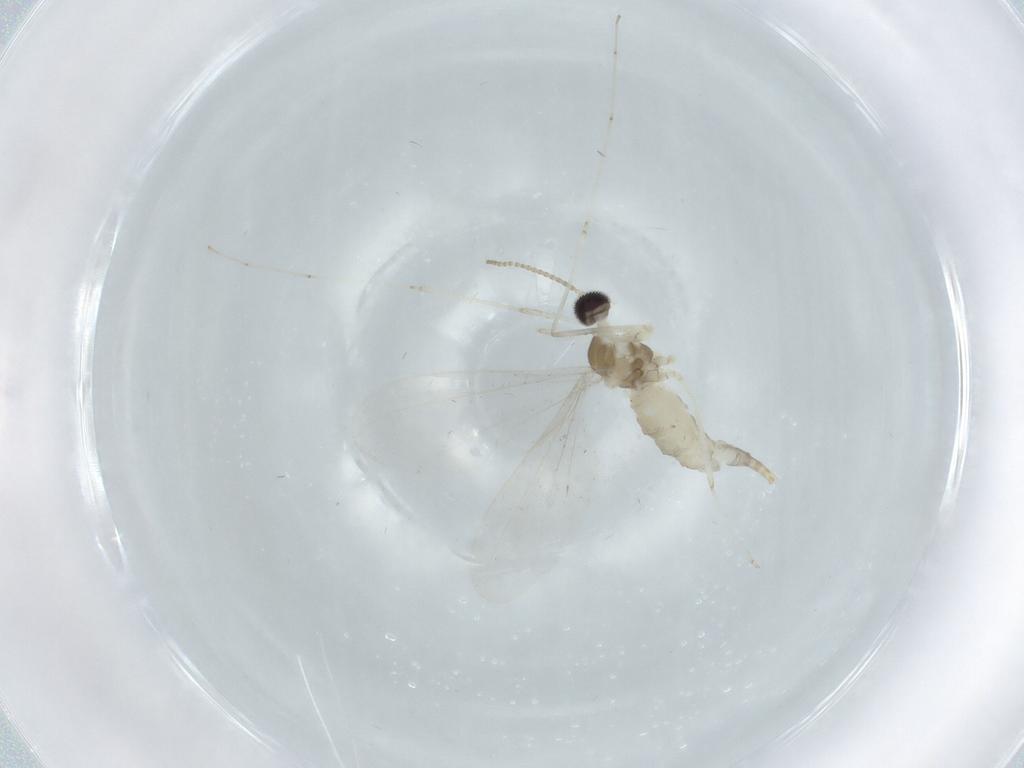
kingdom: Animalia
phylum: Arthropoda
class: Insecta
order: Diptera
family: Cecidomyiidae
